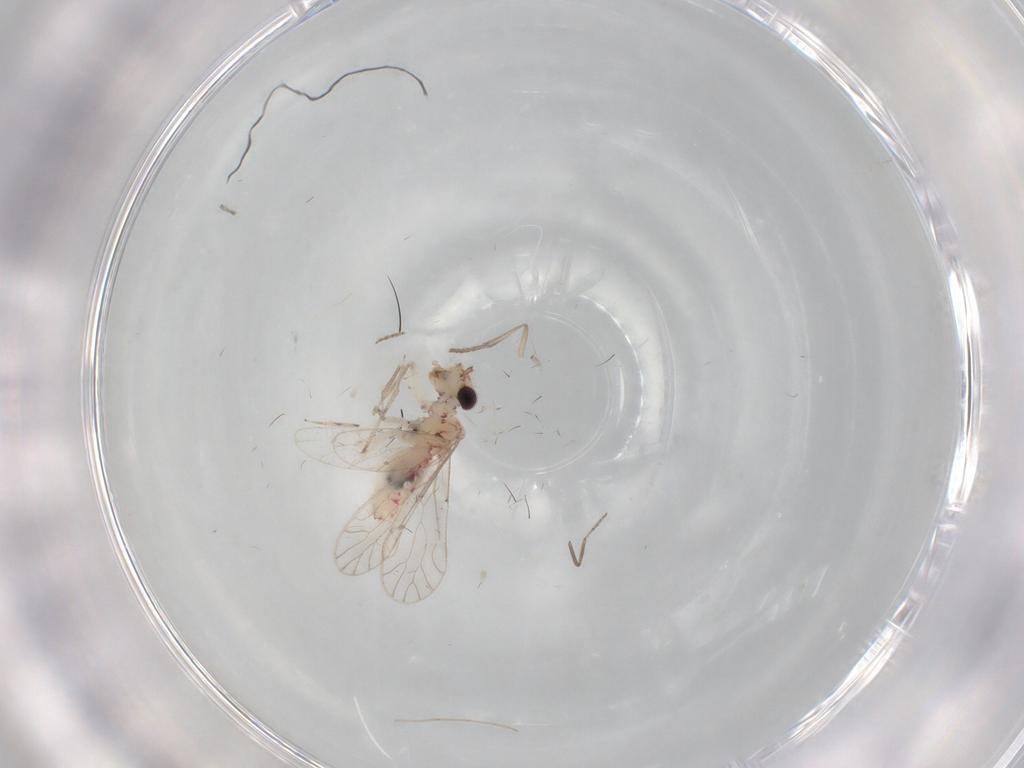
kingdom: Animalia
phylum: Arthropoda
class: Insecta
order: Psocodea
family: Caeciliusidae
